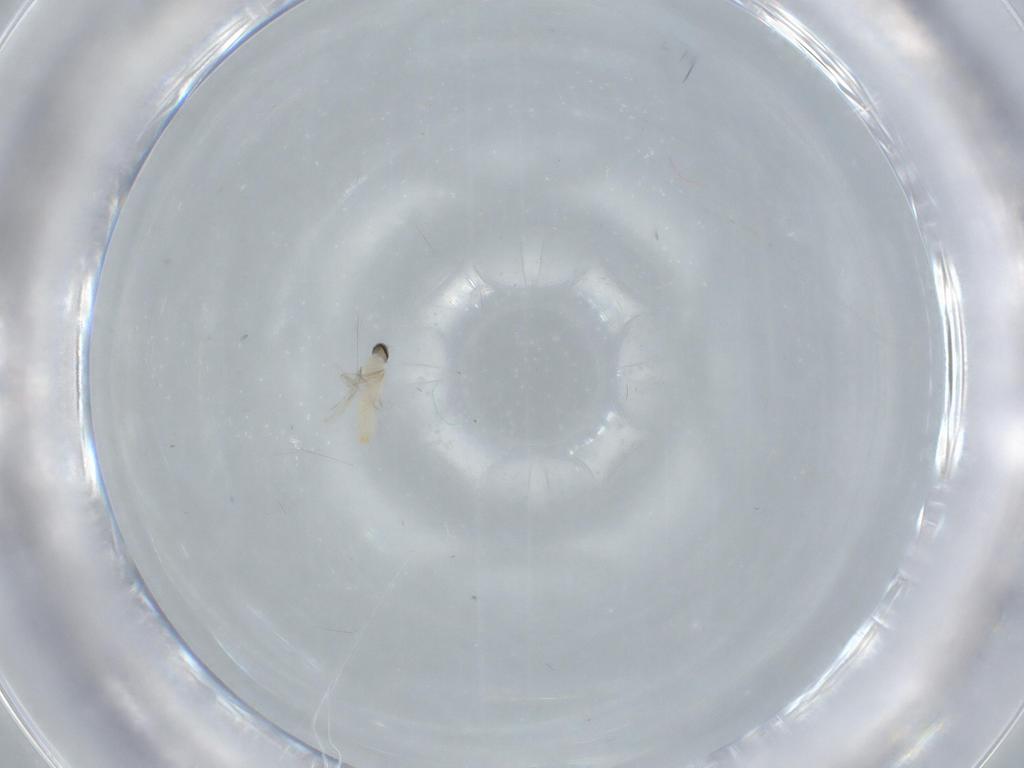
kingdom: Animalia
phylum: Arthropoda
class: Insecta
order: Diptera
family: Cecidomyiidae
